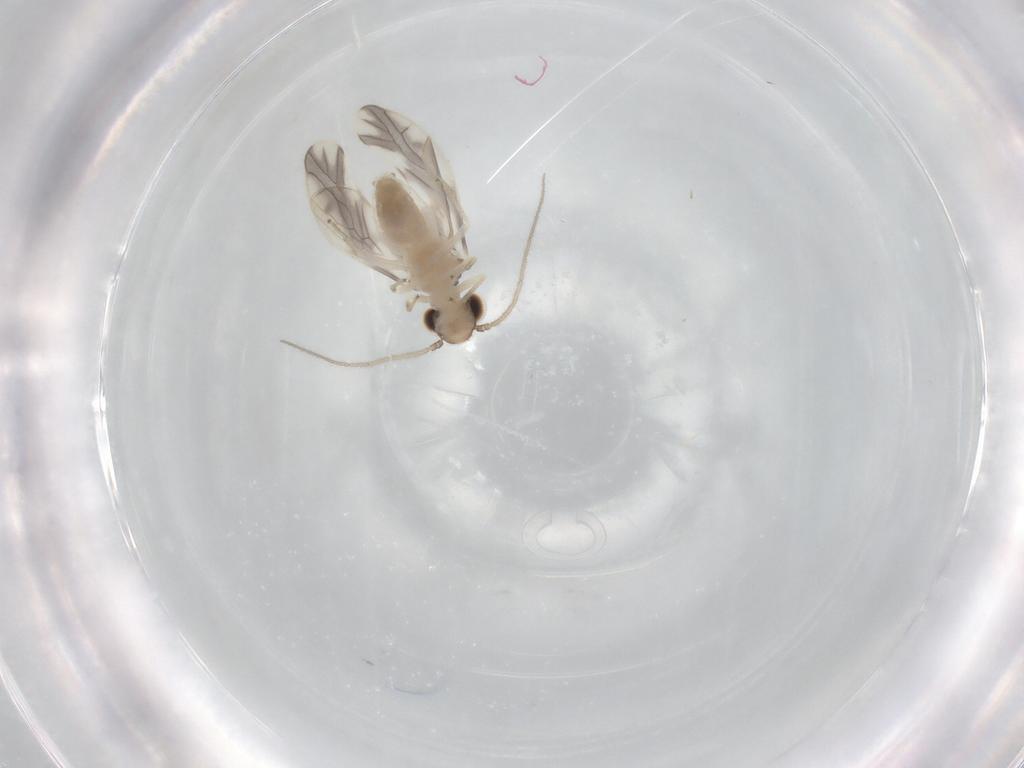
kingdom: Animalia
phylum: Arthropoda
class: Insecta
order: Psocodea
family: Caeciliusidae
